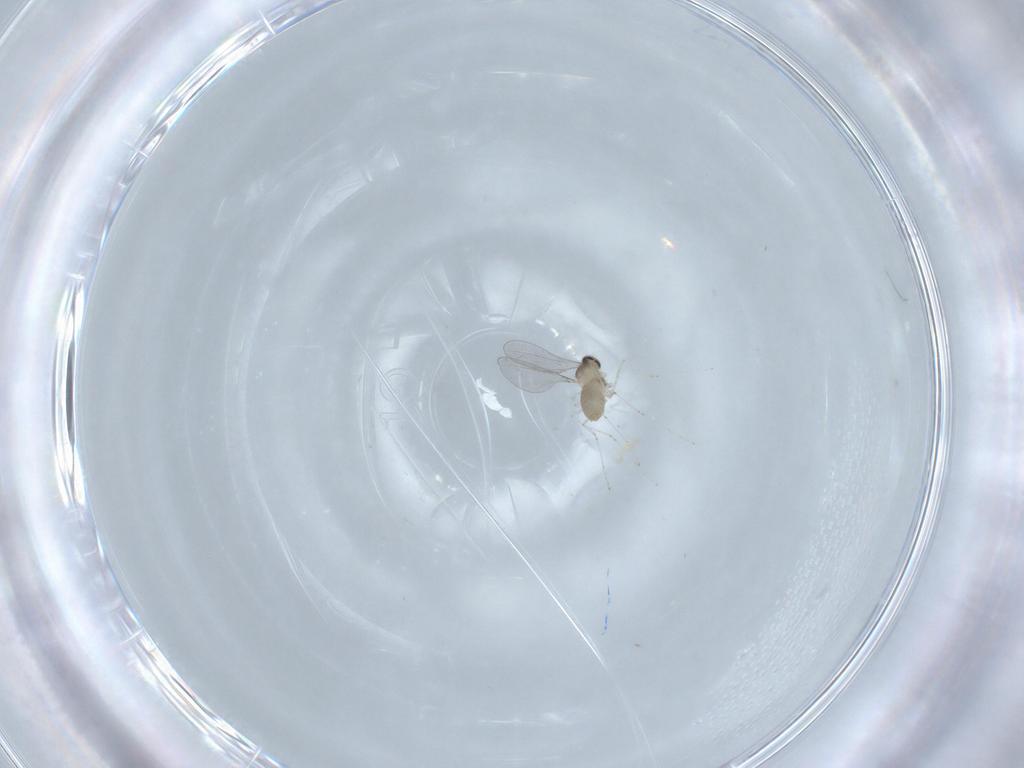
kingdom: Animalia
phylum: Arthropoda
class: Insecta
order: Diptera
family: Cecidomyiidae
